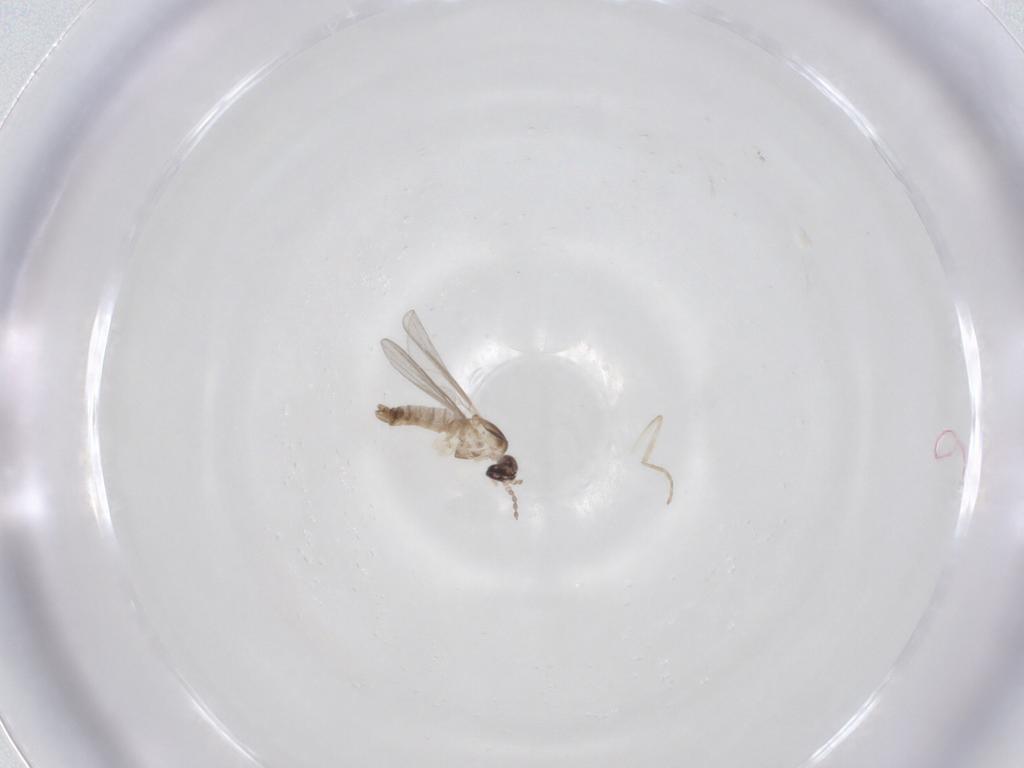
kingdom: Animalia
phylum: Arthropoda
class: Insecta
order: Diptera
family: Cecidomyiidae
